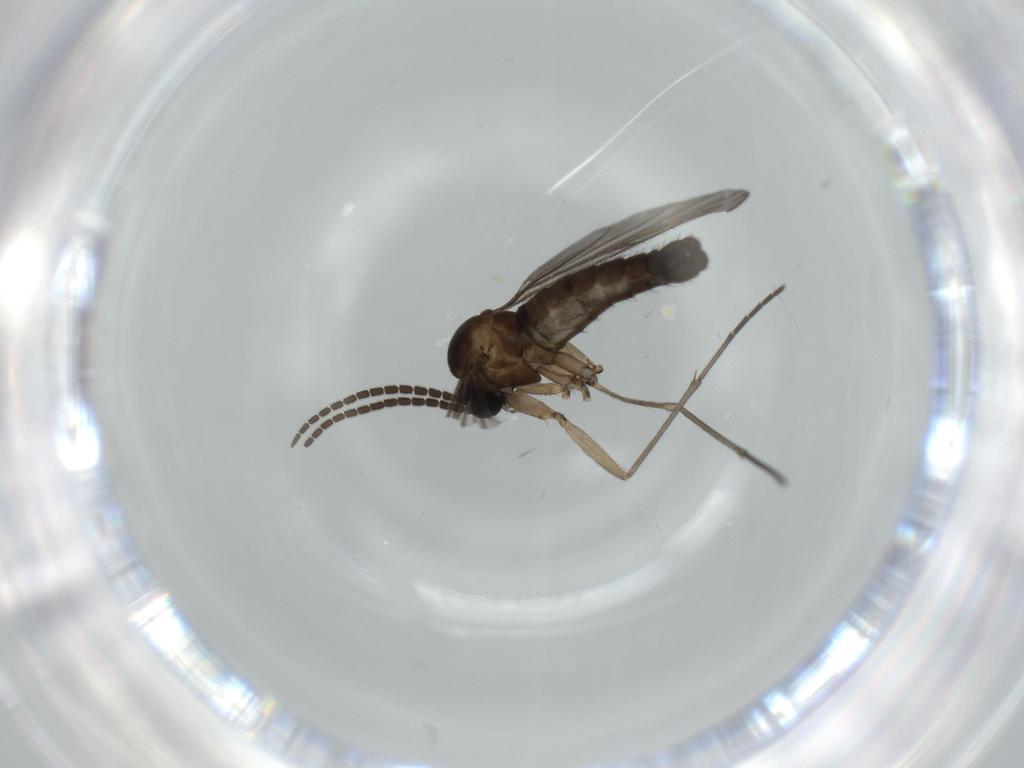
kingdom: Animalia
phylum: Arthropoda
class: Insecta
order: Diptera
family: Sciaridae
